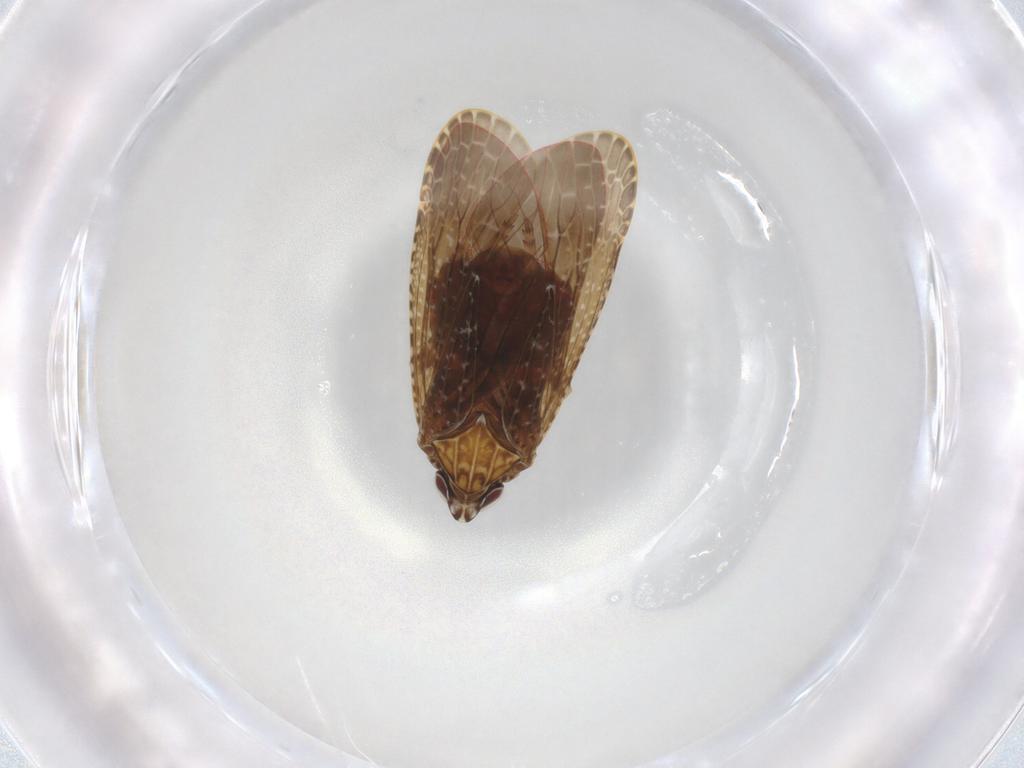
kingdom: Animalia
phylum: Arthropoda
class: Insecta
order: Hemiptera
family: Achilidae
